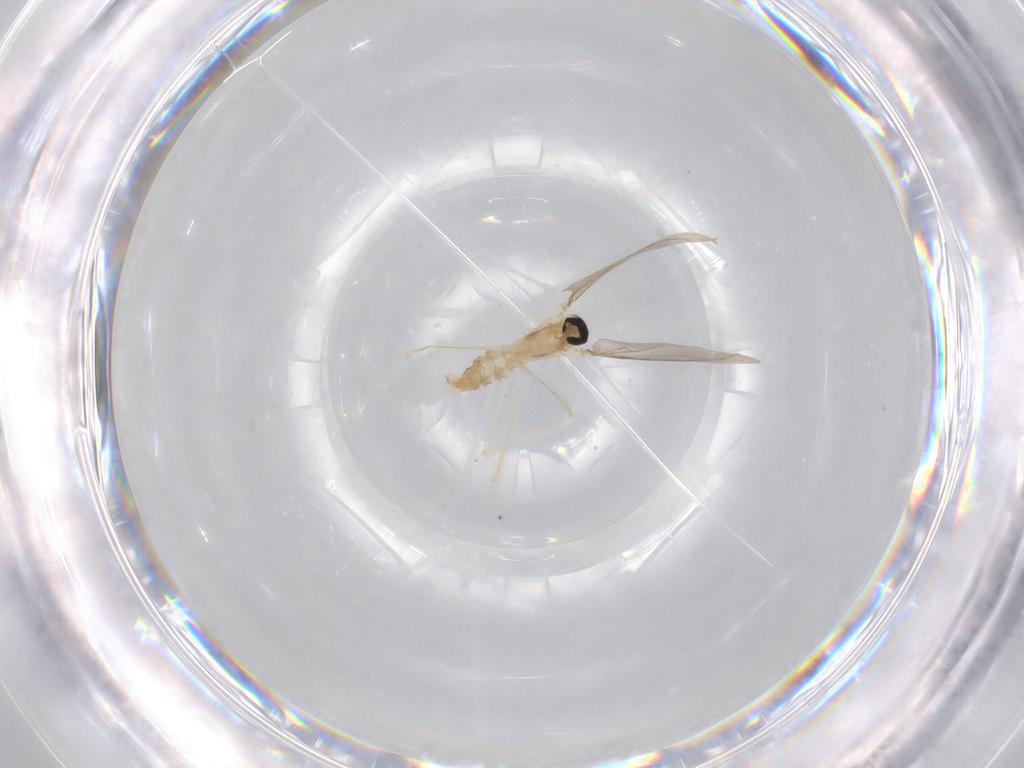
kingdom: Animalia
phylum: Arthropoda
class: Insecta
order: Diptera
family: Cecidomyiidae
